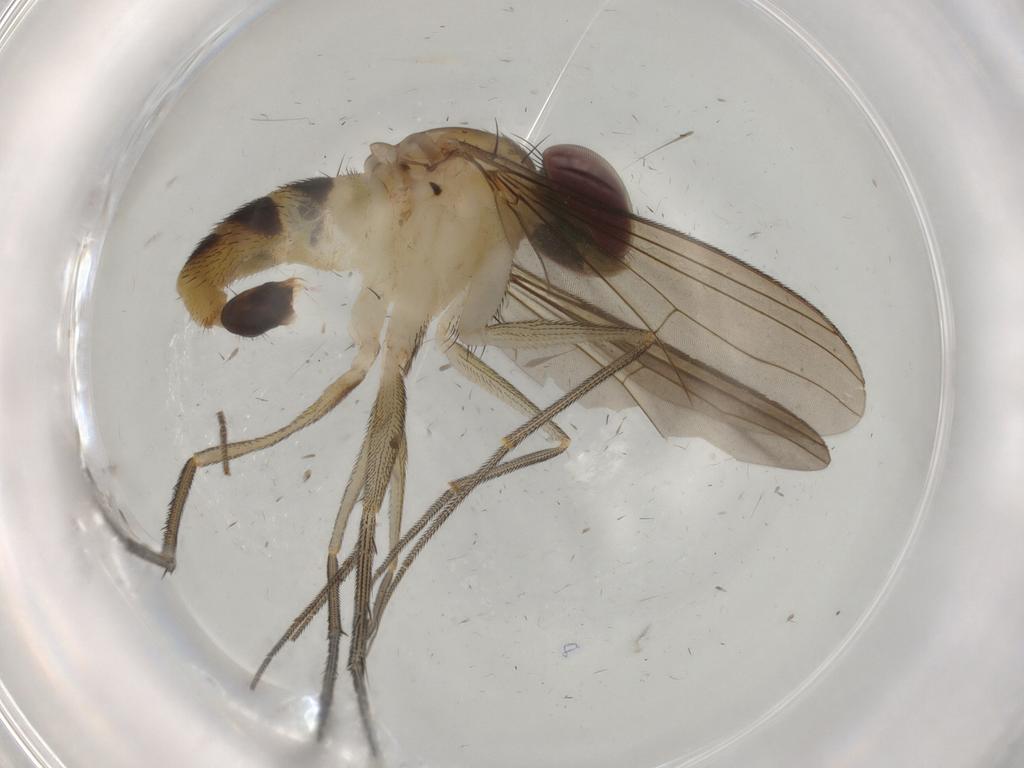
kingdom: Animalia
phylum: Arthropoda
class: Insecta
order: Diptera
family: Dolichopodidae
